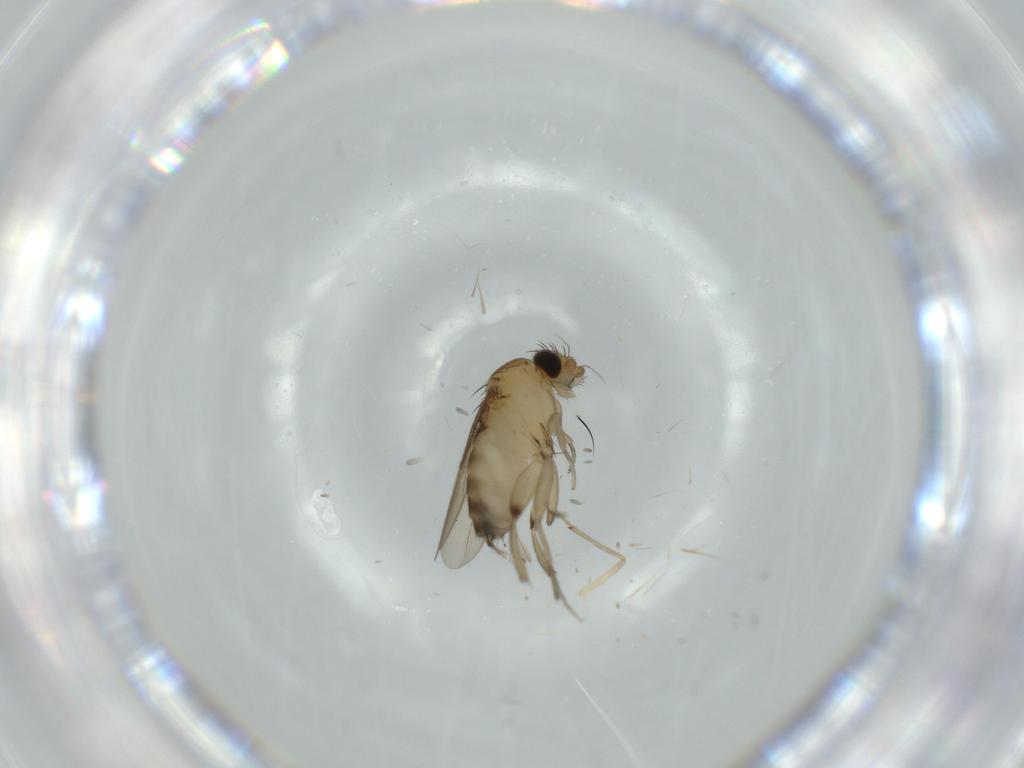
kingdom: Animalia
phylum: Arthropoda
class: Insecta
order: Diptera
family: Phoridae
